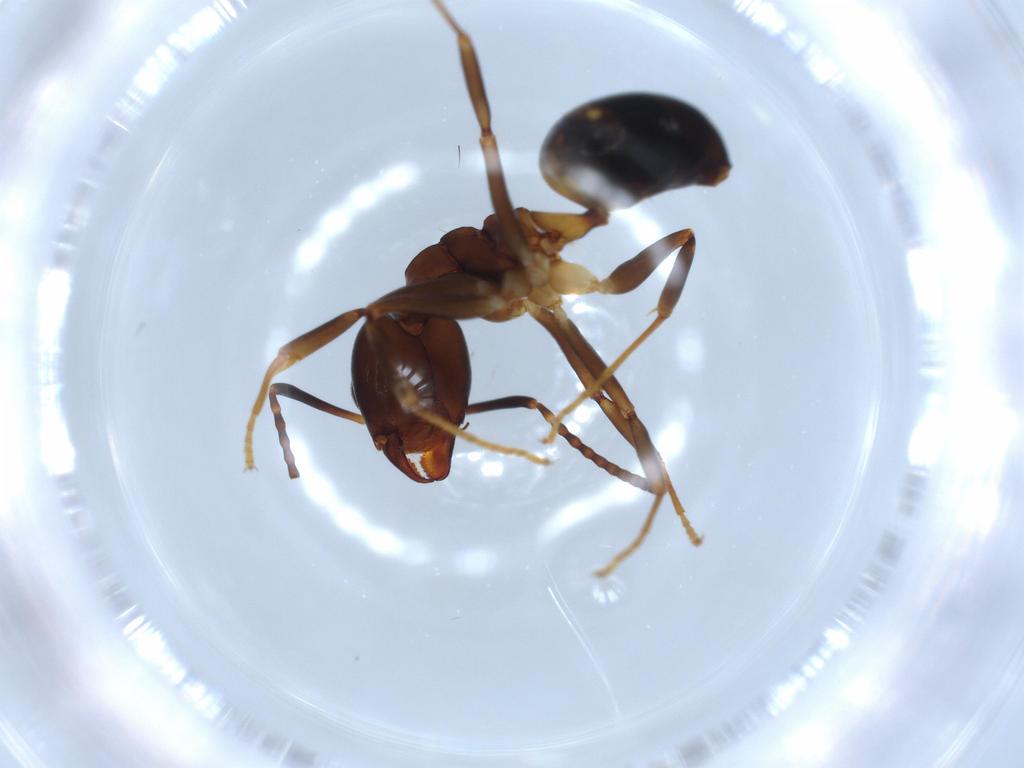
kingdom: Animalia
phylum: Arthropoda
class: Insecta
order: Hymenoptera
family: Formicidae
